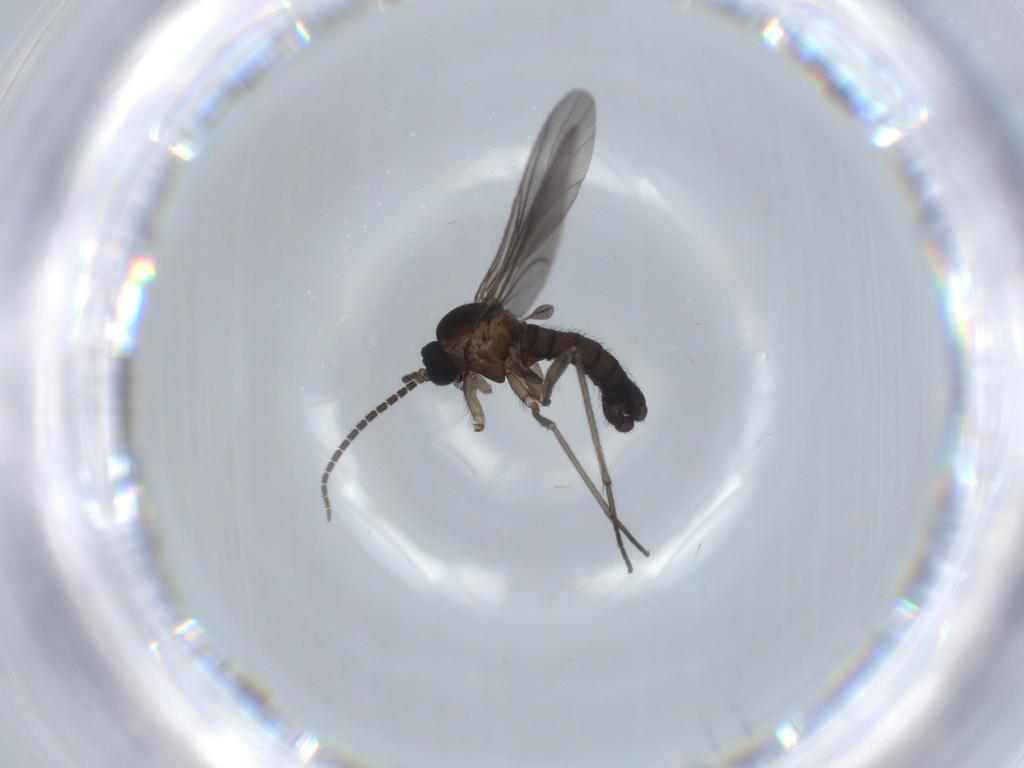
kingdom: Animalia
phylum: Arthropoda
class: Insecta
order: Diptera
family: Sciaridae
